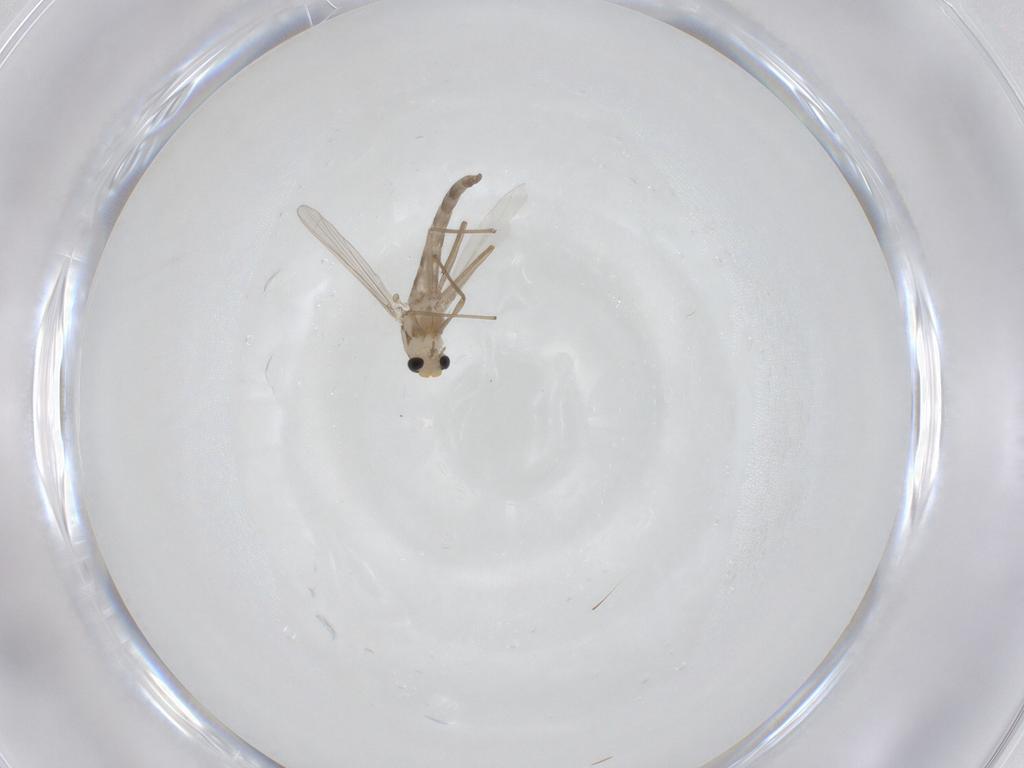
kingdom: Animalia
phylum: Arthropoda
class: Insecta
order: Diptera
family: Chironomidae
